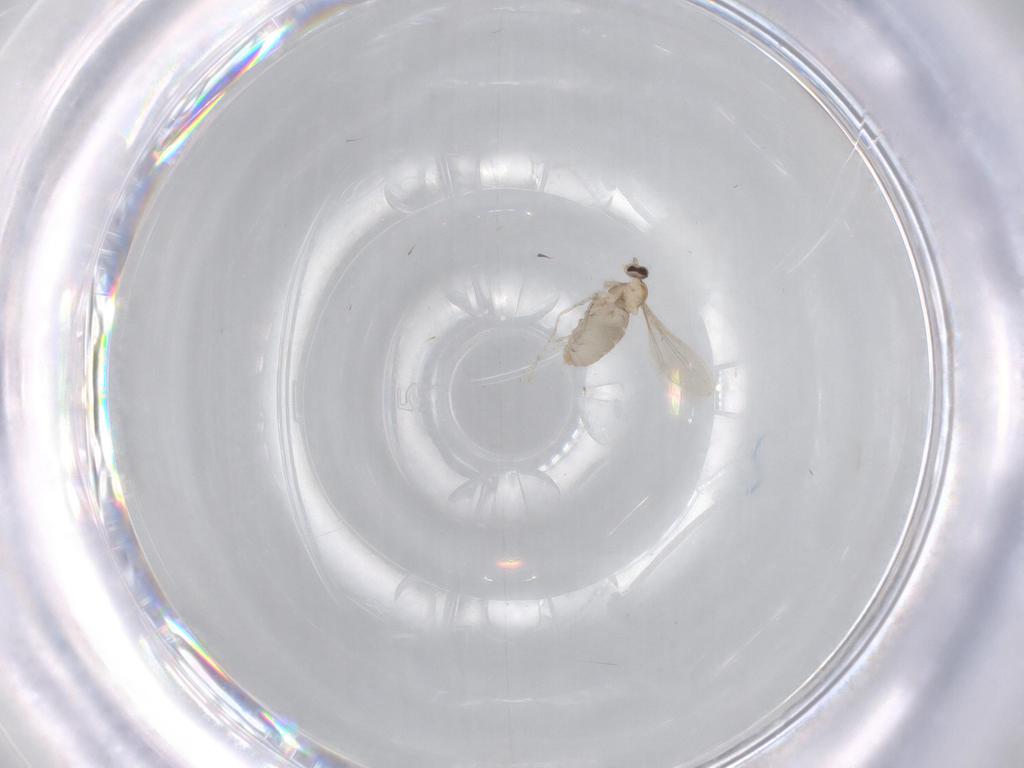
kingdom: Animalia
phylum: Arthropoda
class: Insecta
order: Diptera
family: Cecidomyiidae
